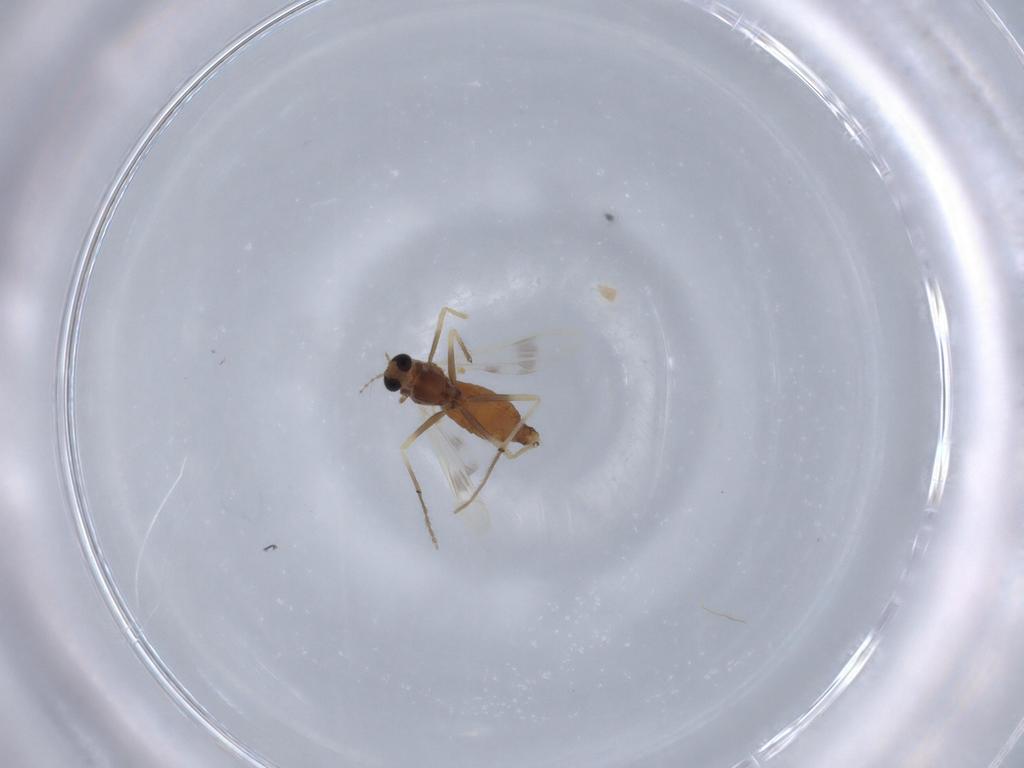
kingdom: Animalia
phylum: Arthropoda
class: Insecta
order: Diptera
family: Chironomidae
